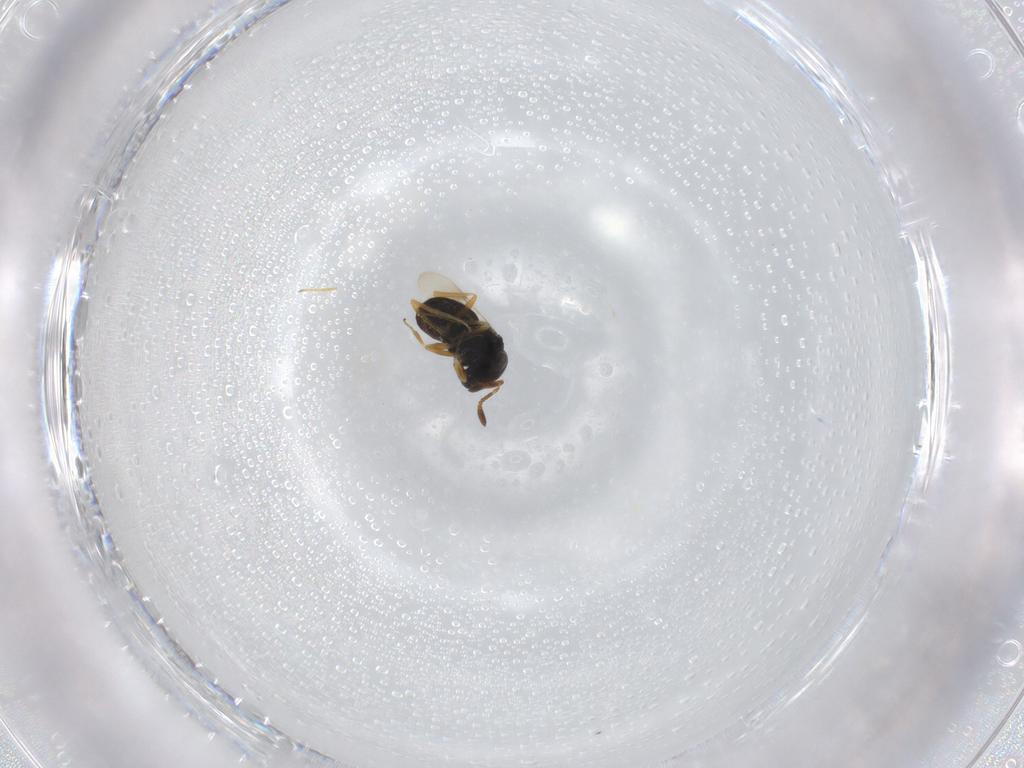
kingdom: Animalia
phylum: Arthropoda
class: Insecta
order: Hymenoptera
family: Scelionidae
